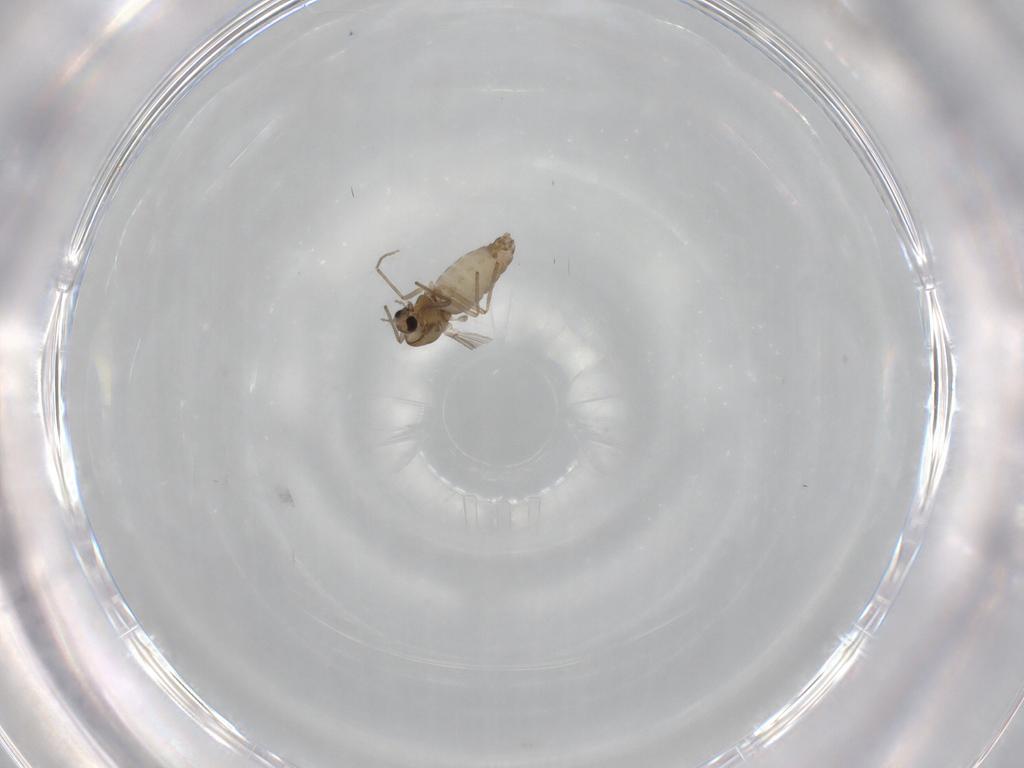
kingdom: Animalia
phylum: Arthropoda
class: Insecta
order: Diptera
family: Chironomidae
